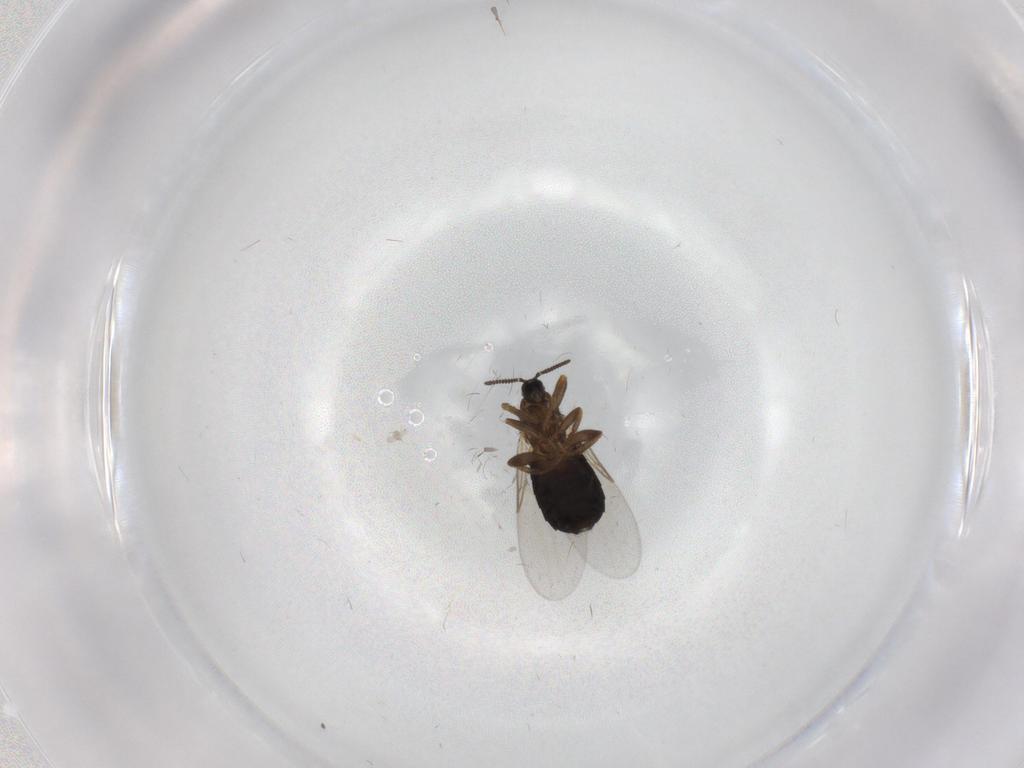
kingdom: Animalia
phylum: Arthropoda
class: Insecta
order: Diptera
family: Scatopsidae
